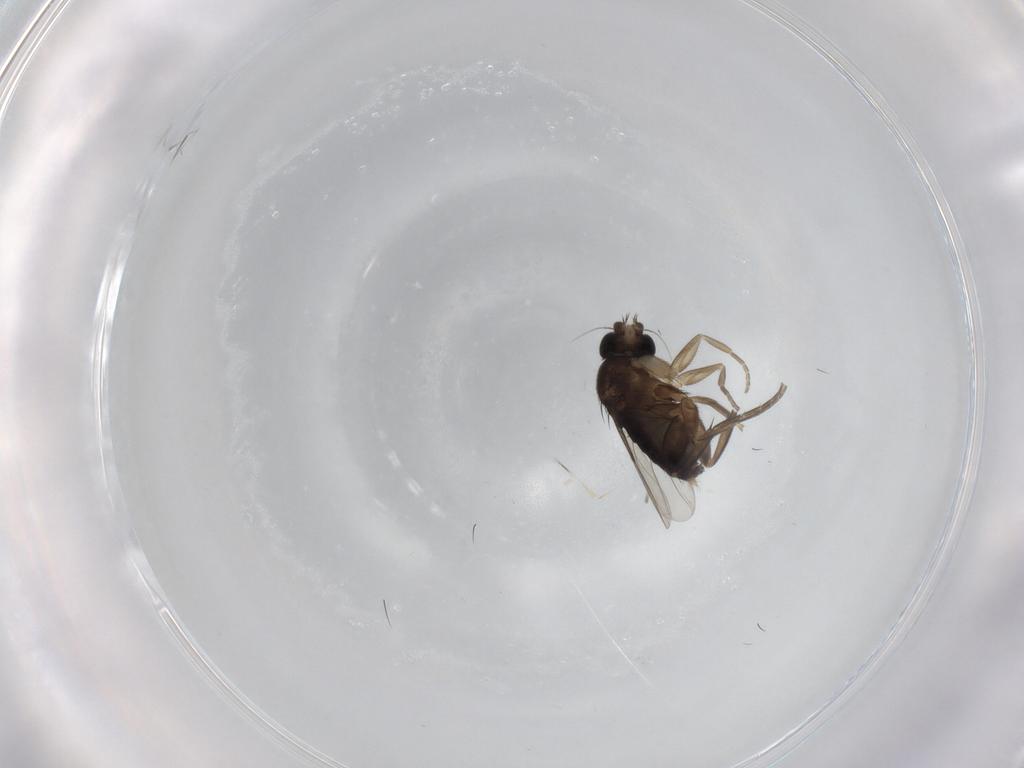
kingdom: Animalia
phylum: Arthropoda
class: Insecta
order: Diptera
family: Phoridae
